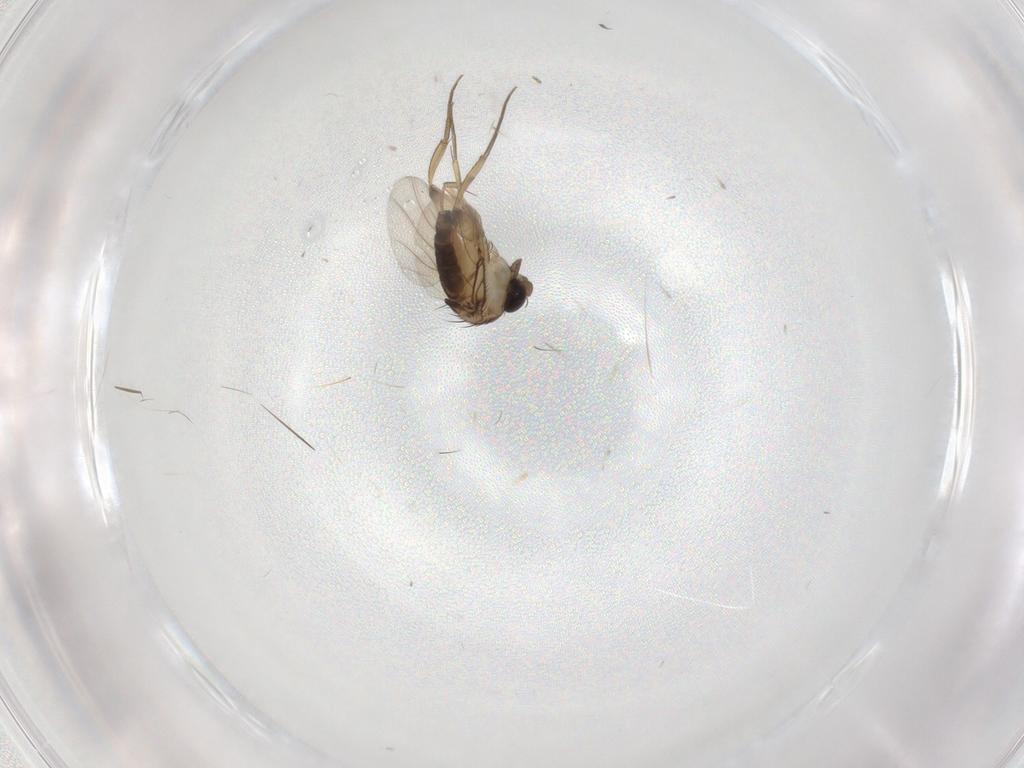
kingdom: Animalia
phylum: Arthropoda
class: Insecta
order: Diptera
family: Phoridae
